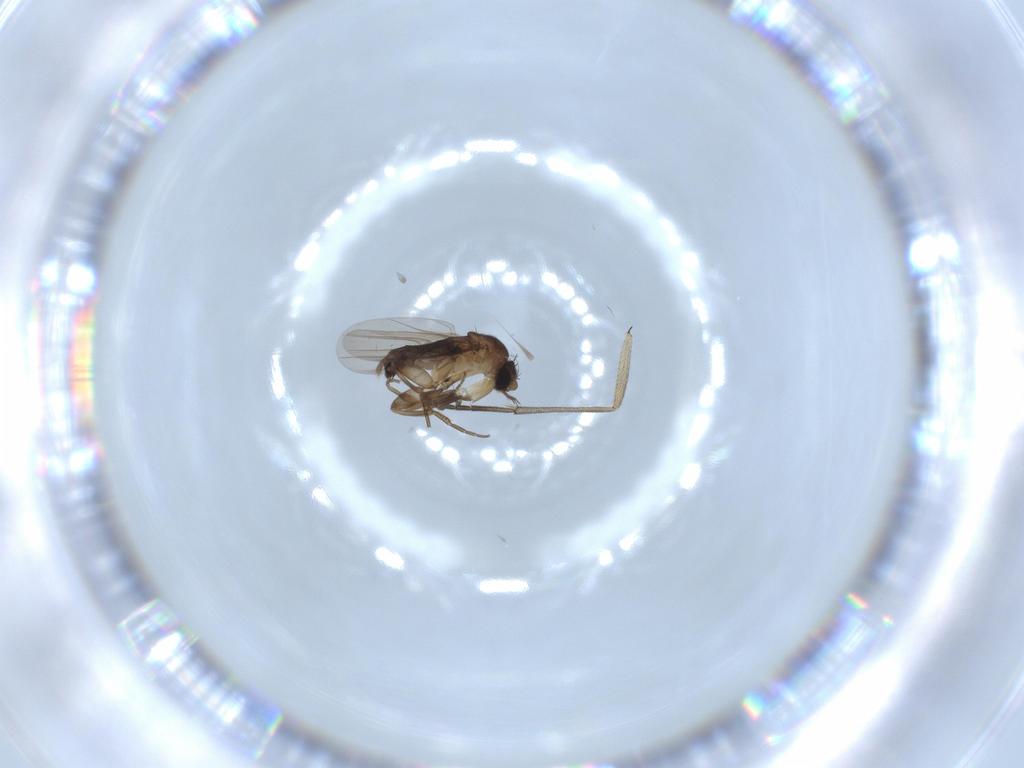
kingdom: Animalia
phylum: Arthropoda
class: Insecta
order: Diptera
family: Phoridae
